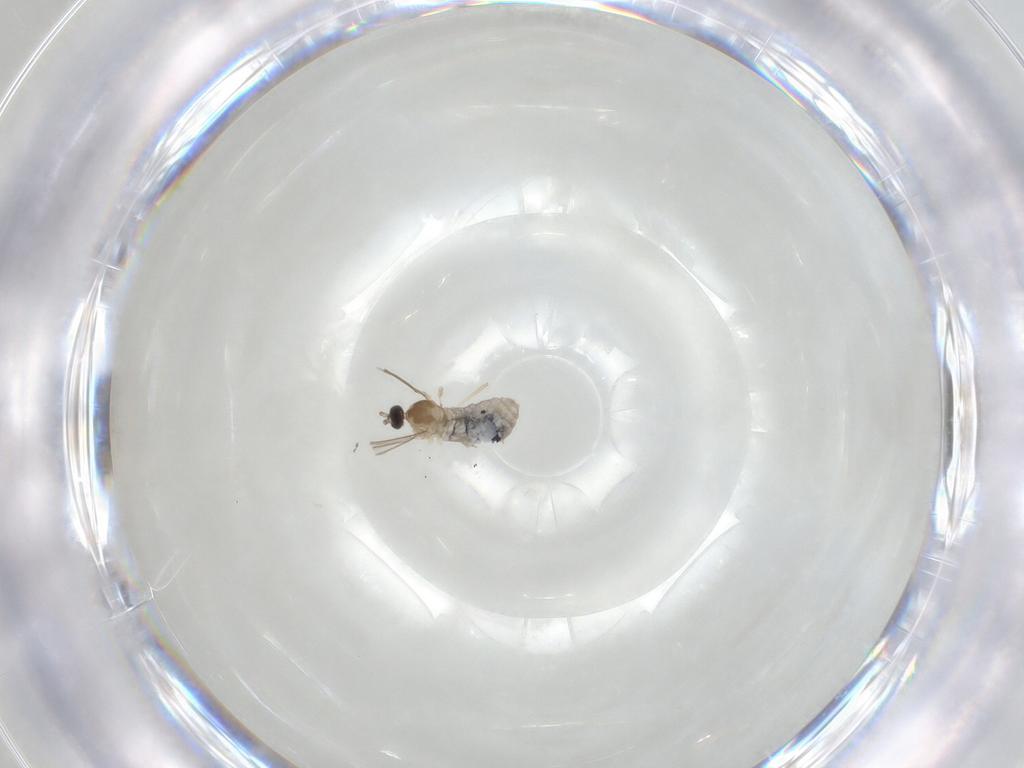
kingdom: Animalia
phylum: Arthropoda
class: Insecta
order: Diptera
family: Cecidomyiidae
